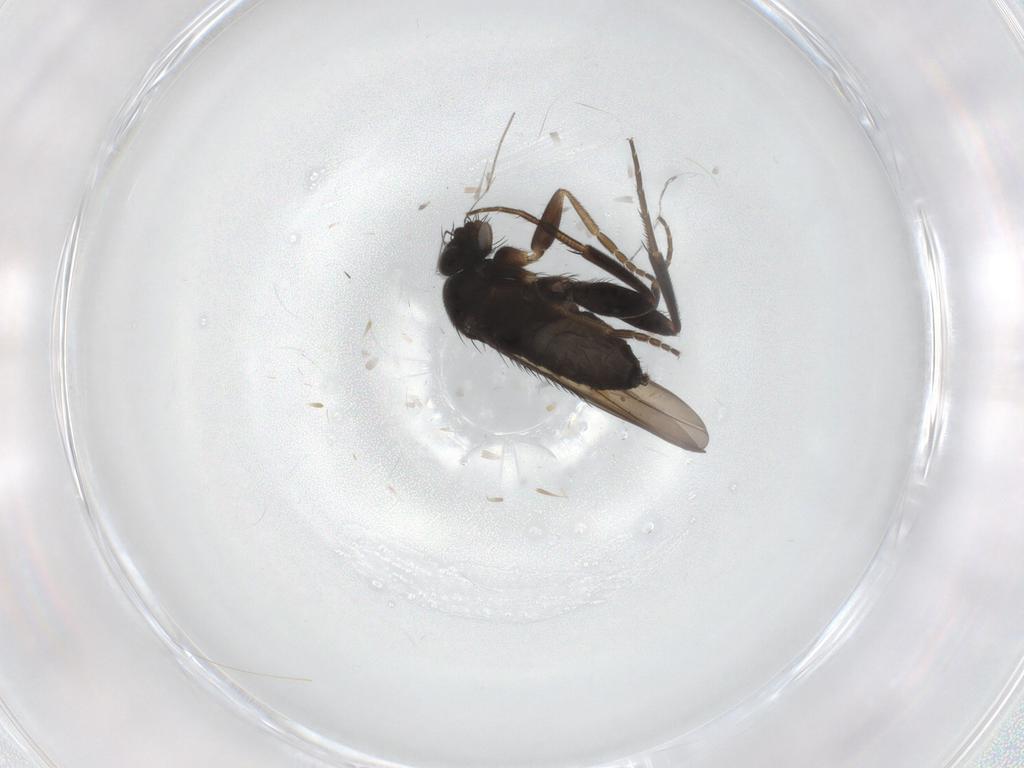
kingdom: Animalia
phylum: Arthropoda
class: Insecta
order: Diptera
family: Phoridae
